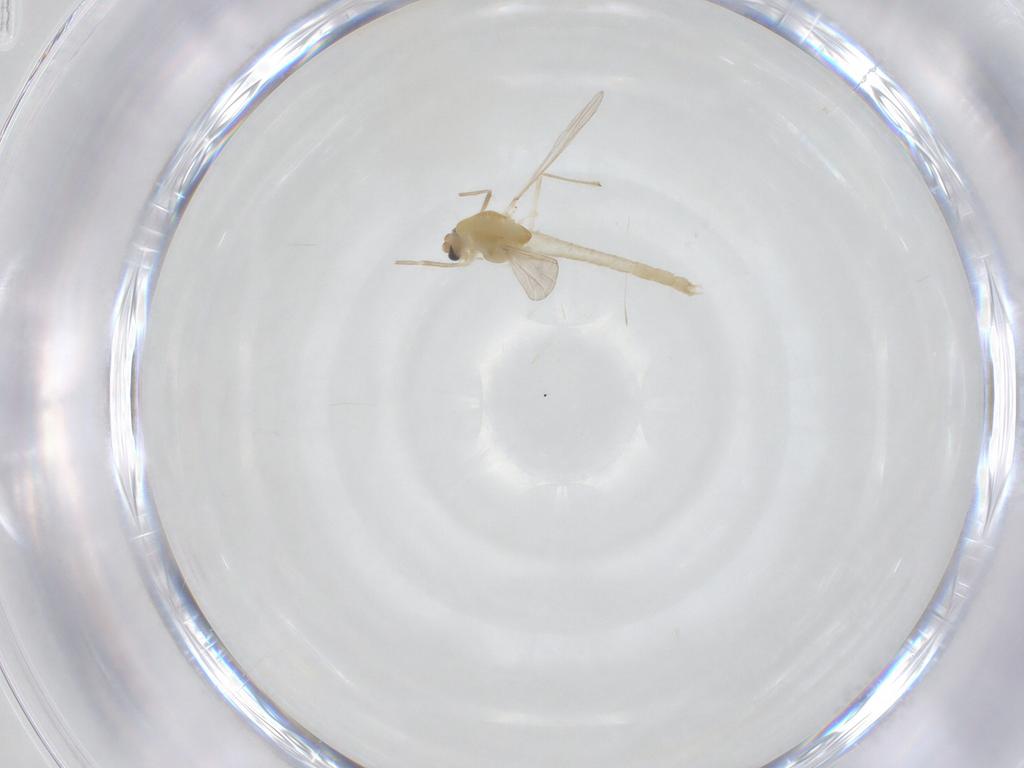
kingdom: Animalia
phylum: Arthropoda
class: Insecta
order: Diptera
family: Chironomidae
